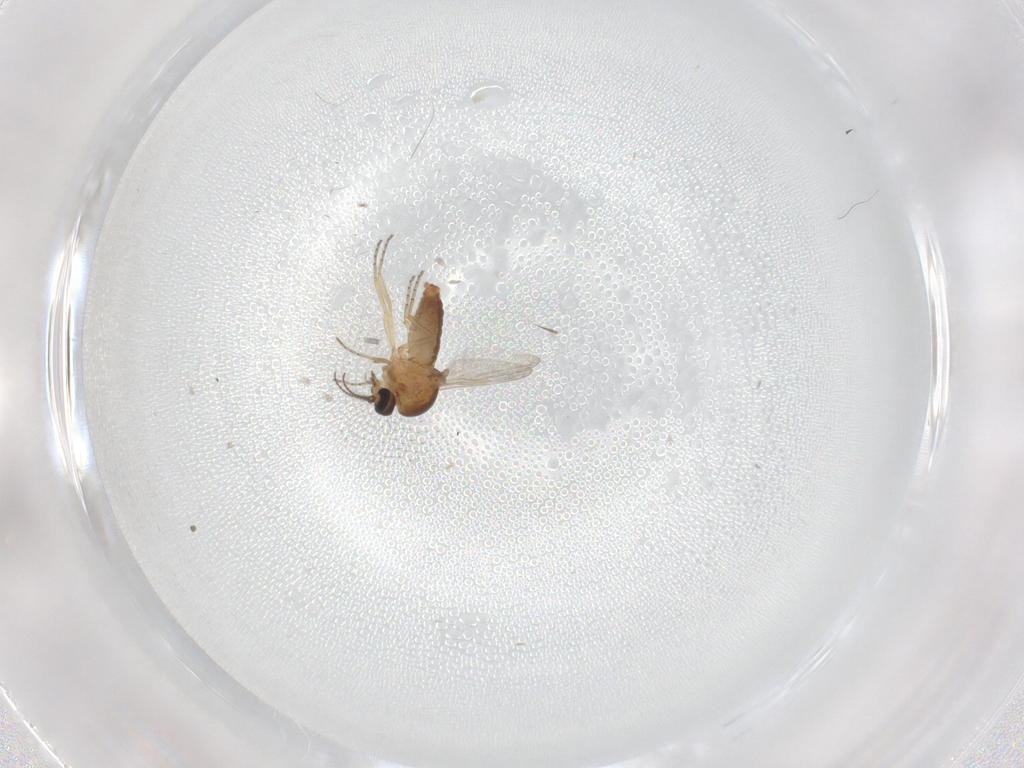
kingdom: Animalia
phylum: Arthropoda
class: Insecta
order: Diptera
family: Ceratopogonidae
